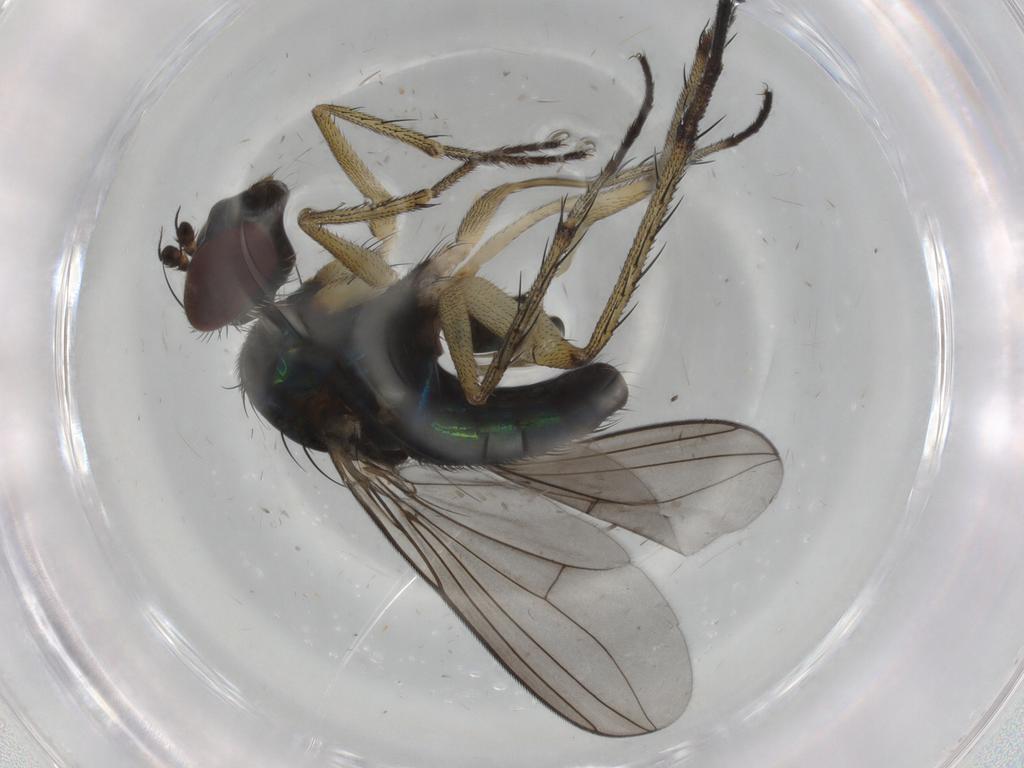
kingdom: Animalia
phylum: Arthropoda
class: Insecta
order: Diptera
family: Dolichopodidae
